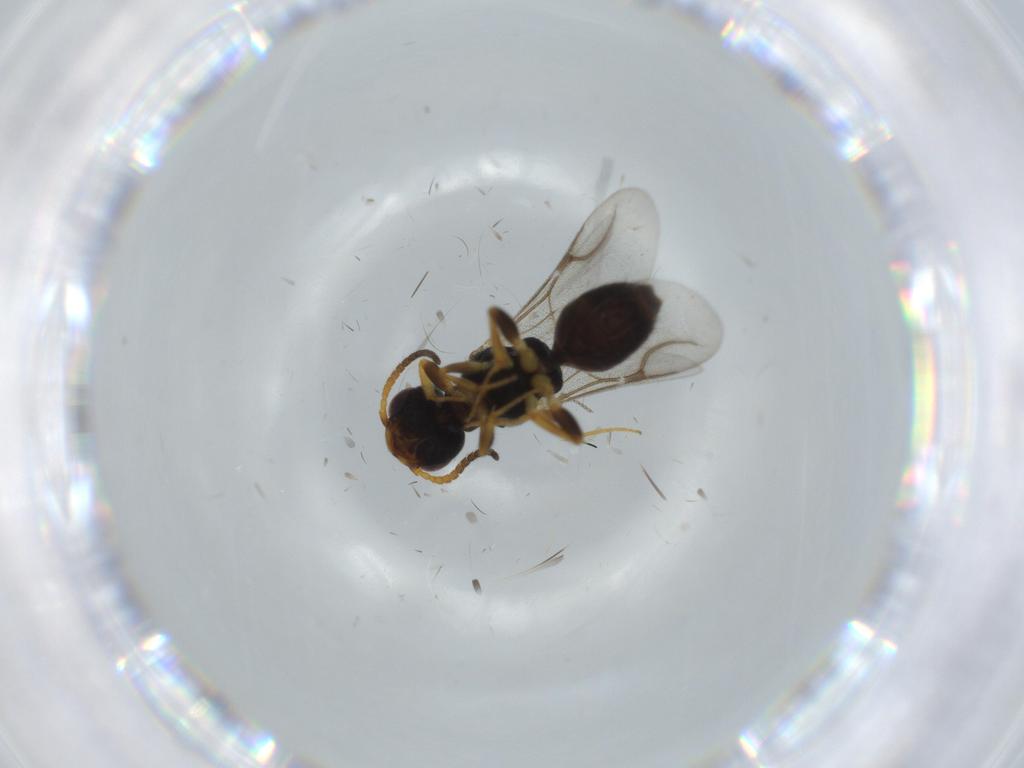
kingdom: Animalia
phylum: Arthropoda
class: Insecta
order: Hymenoptera
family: Bethylidae
